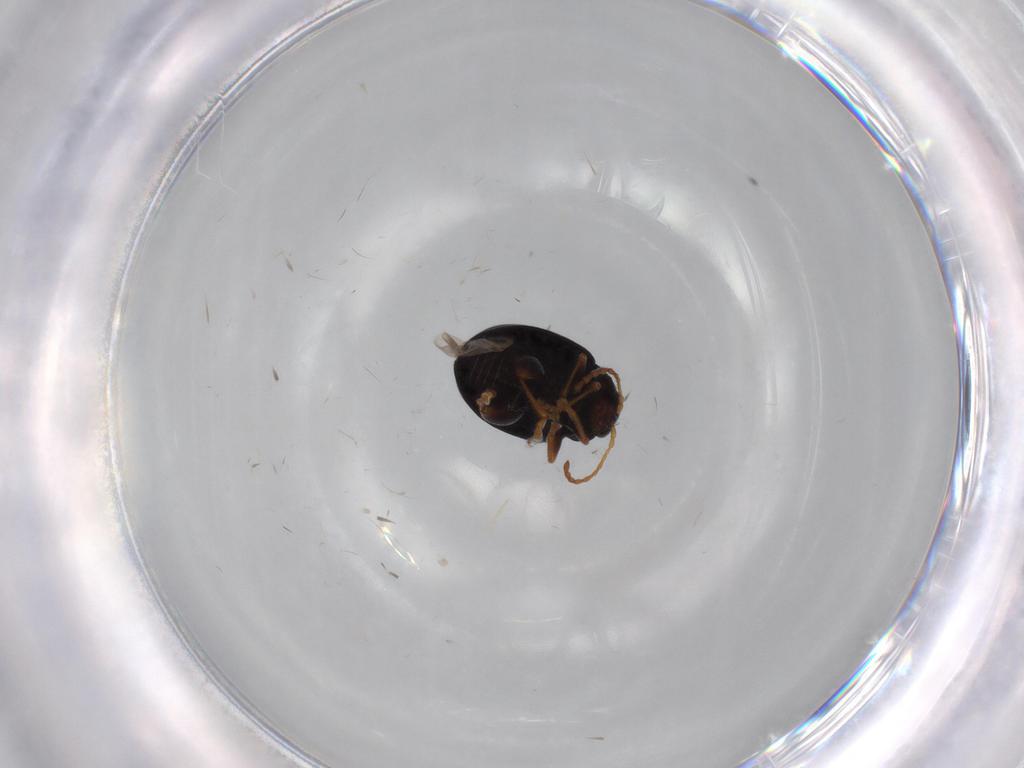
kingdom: Animalia
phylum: Arthropoda
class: Insecta
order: Coleoptera
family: Chrysomelidae
